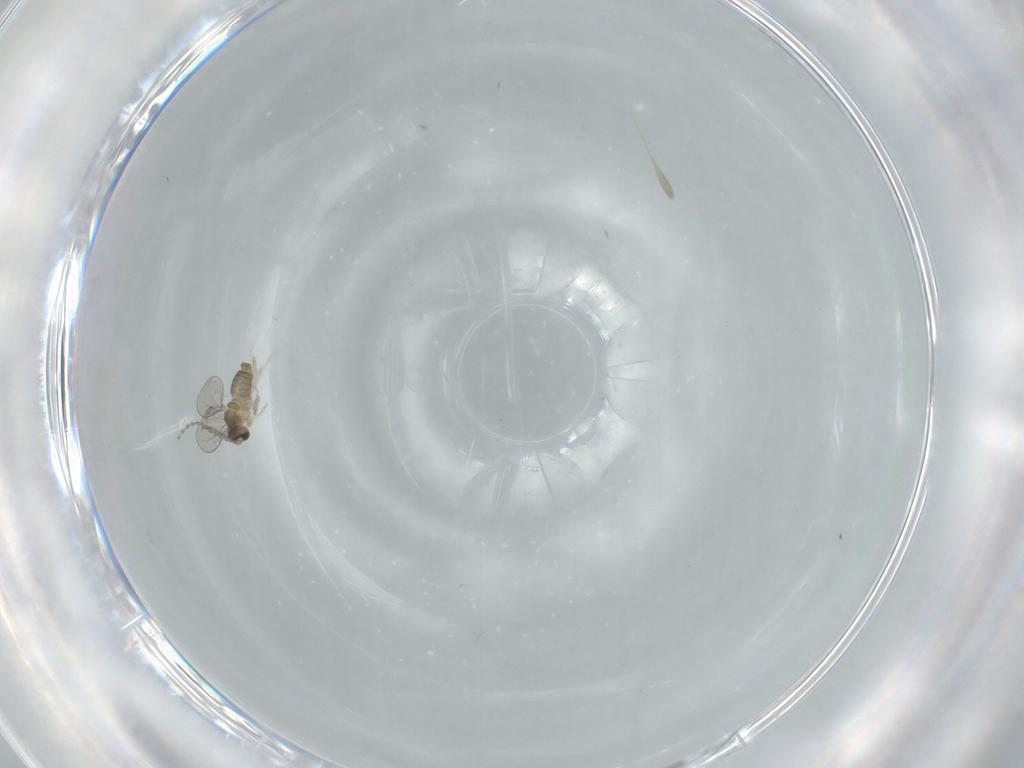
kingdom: Animalia
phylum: Arthropoda
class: Insecta
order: Diptera
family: Cecidomyiidae
